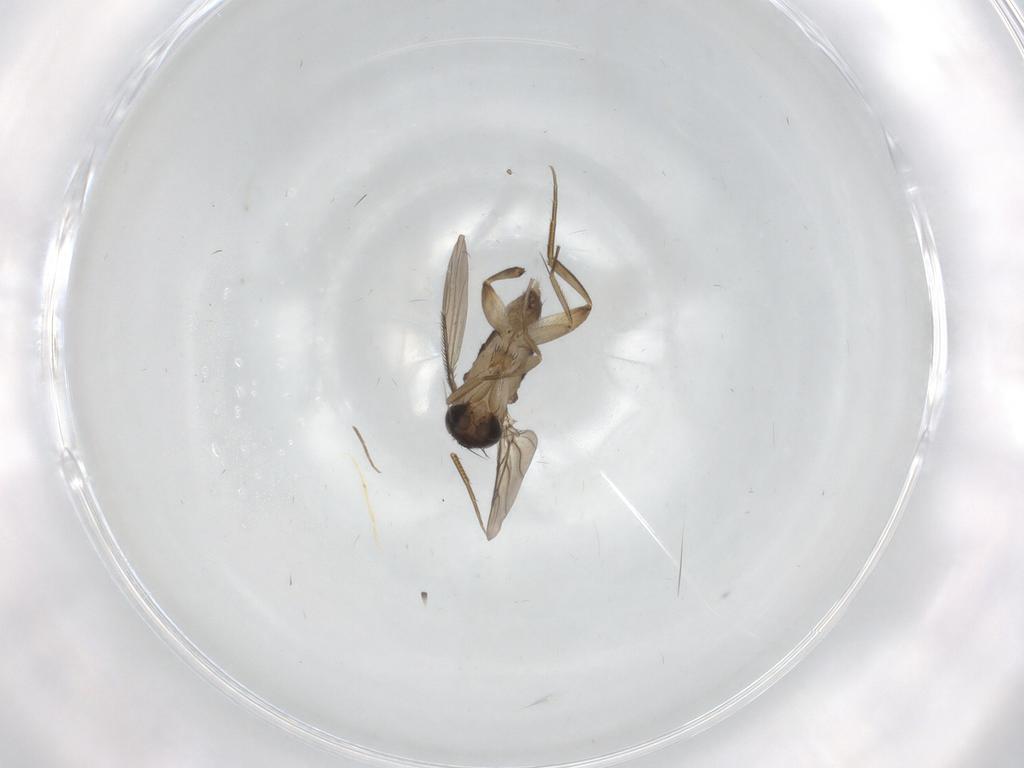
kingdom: Animalia
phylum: Arthropoda
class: Insecta
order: Diptera
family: Phoridae
